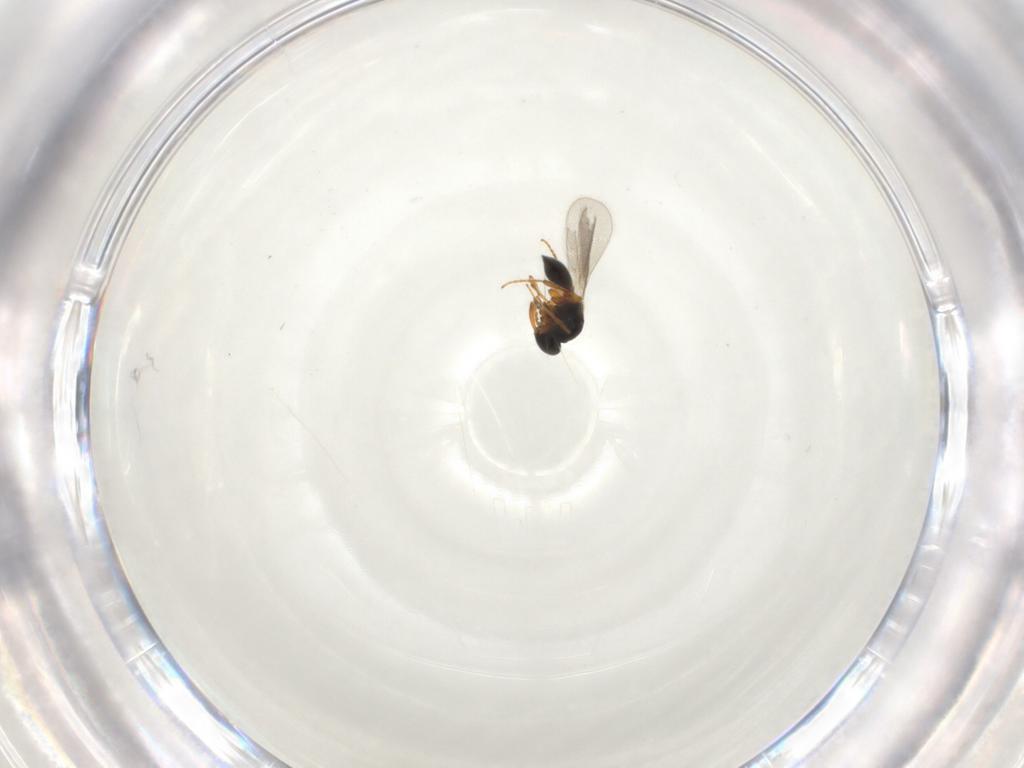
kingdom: Animalia
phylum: Arthropoda
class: Insecta
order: Hymenoptera
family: Platygastridae
